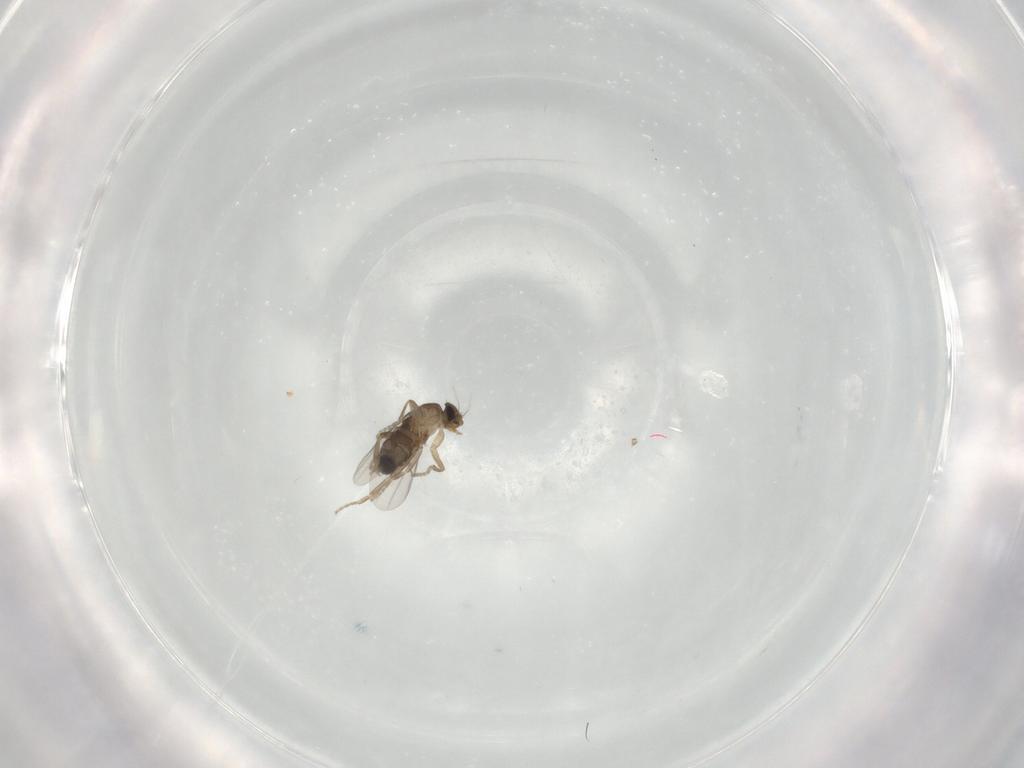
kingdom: Animalia
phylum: Arthropoda
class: Insecta
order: Diptera
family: Phoridae
